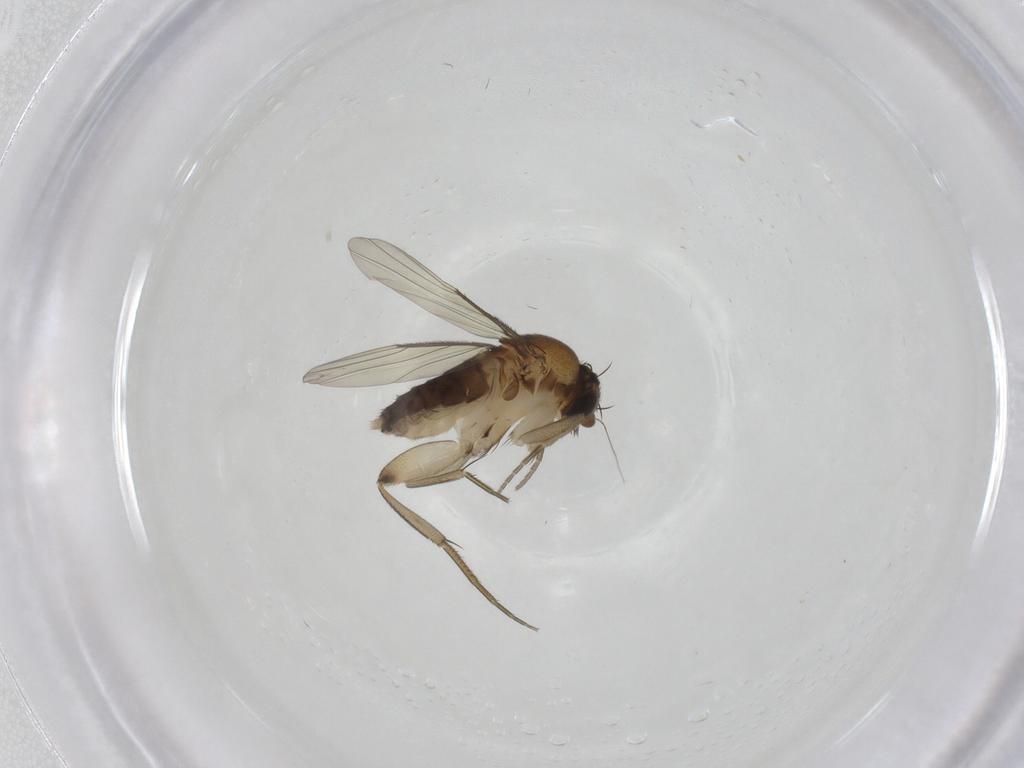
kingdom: Animalia
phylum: Arthropoda
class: Insecta
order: Diptera
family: Phoridae
